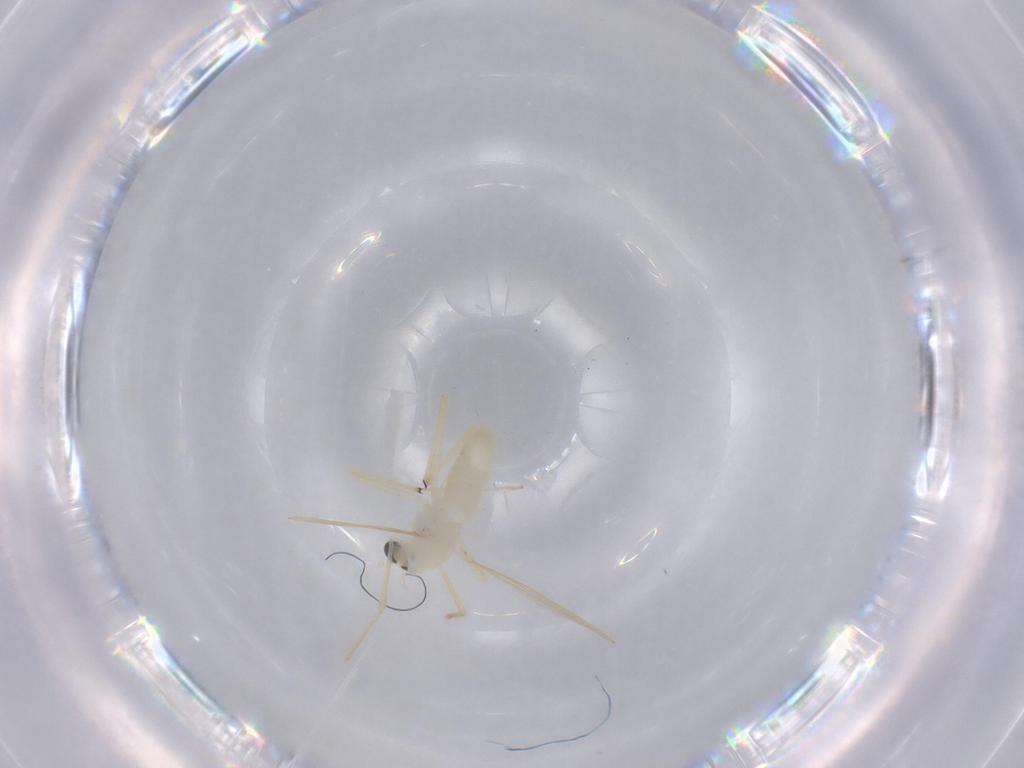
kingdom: Animalia
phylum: Arthropoda
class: Insecta
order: Diptera
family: Chironomidae
